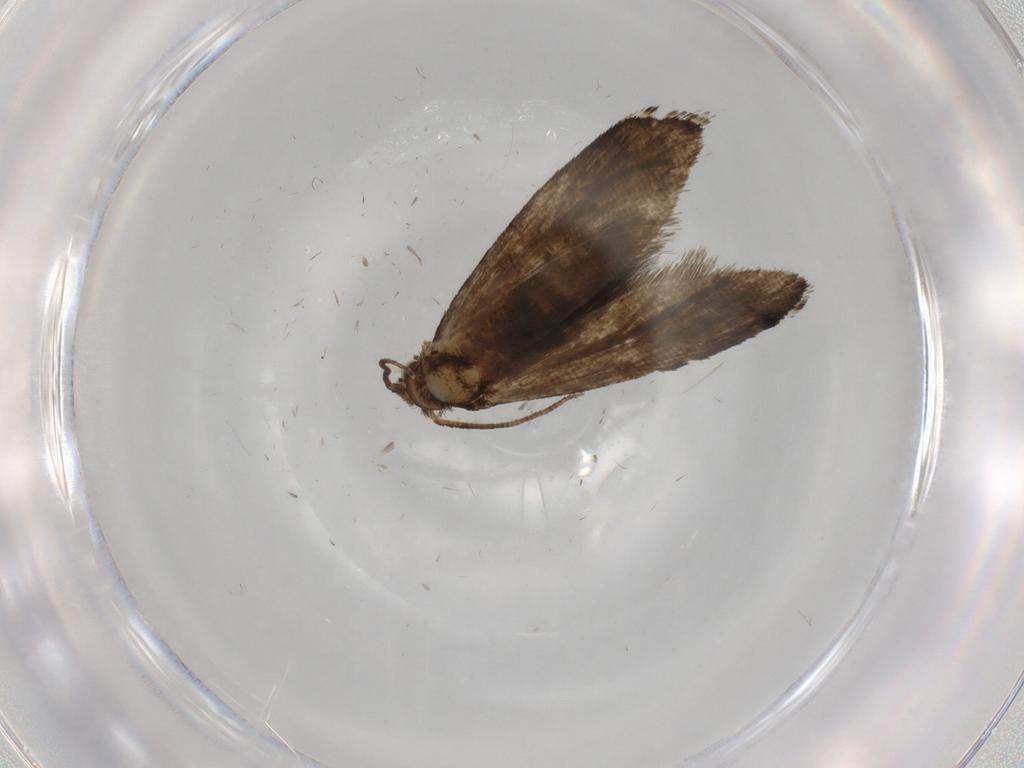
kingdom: Animalia
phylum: Arthropoda
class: Insecta
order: Lepidoptera
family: Crambidae
